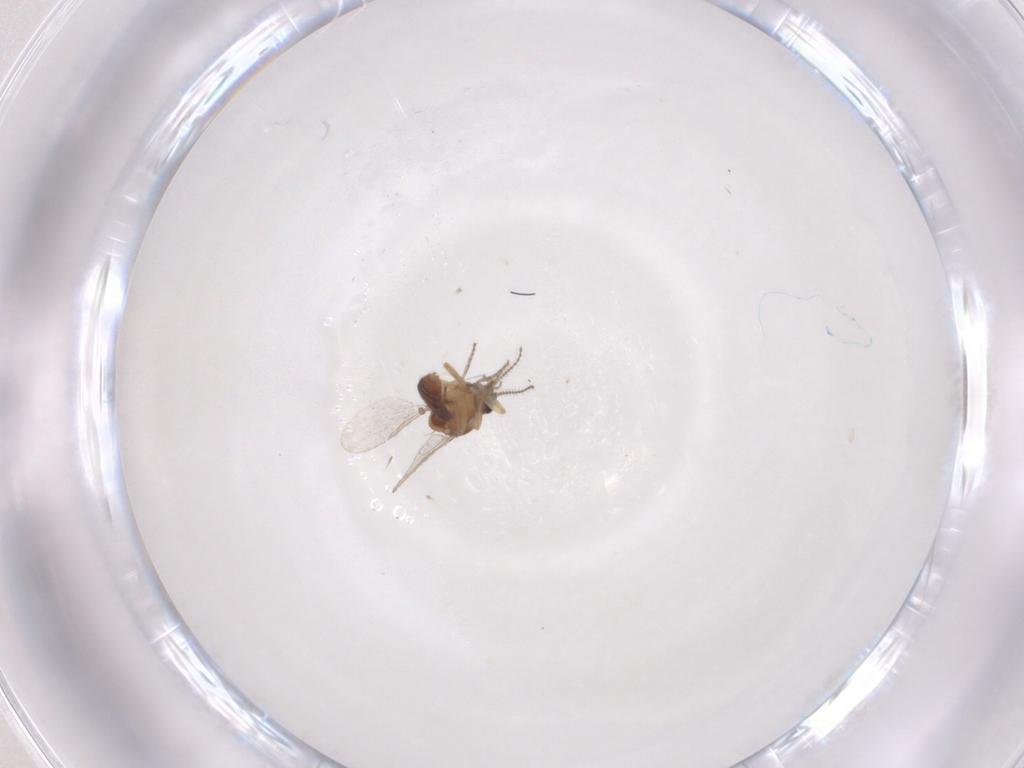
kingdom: Animalia
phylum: Arthropoda
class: Insecta
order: Diptera
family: Ceratopogonidae
